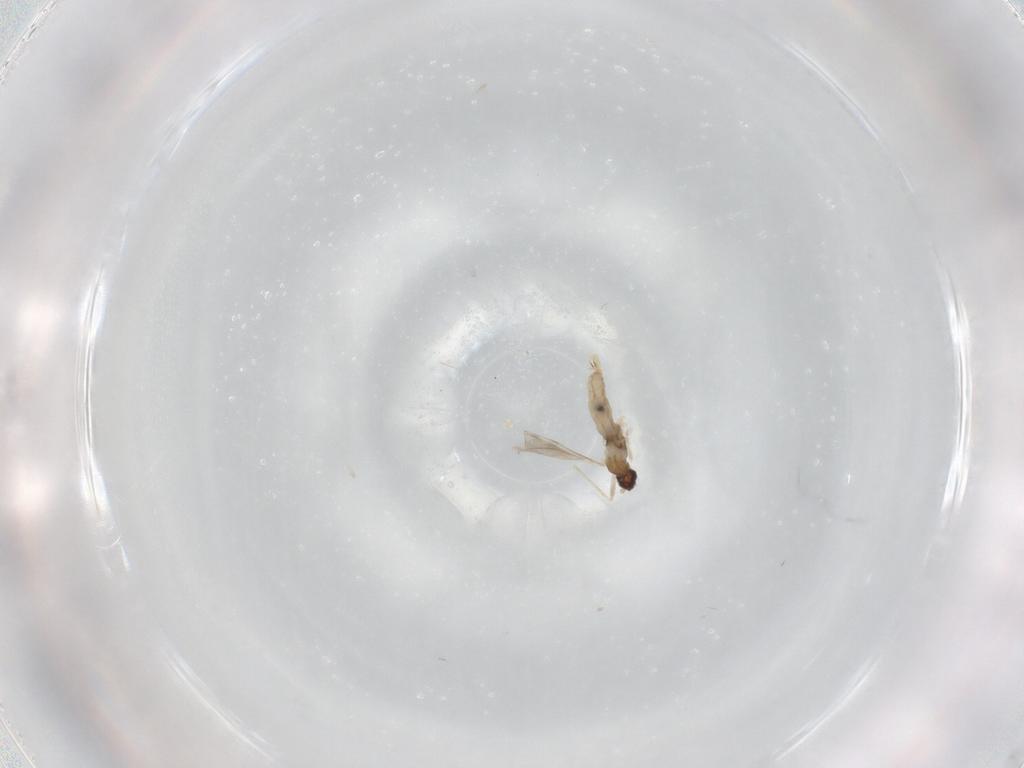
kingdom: Animalia
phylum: Arthropoda
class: Insecta
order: Diptera
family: Cecidomyiidae
